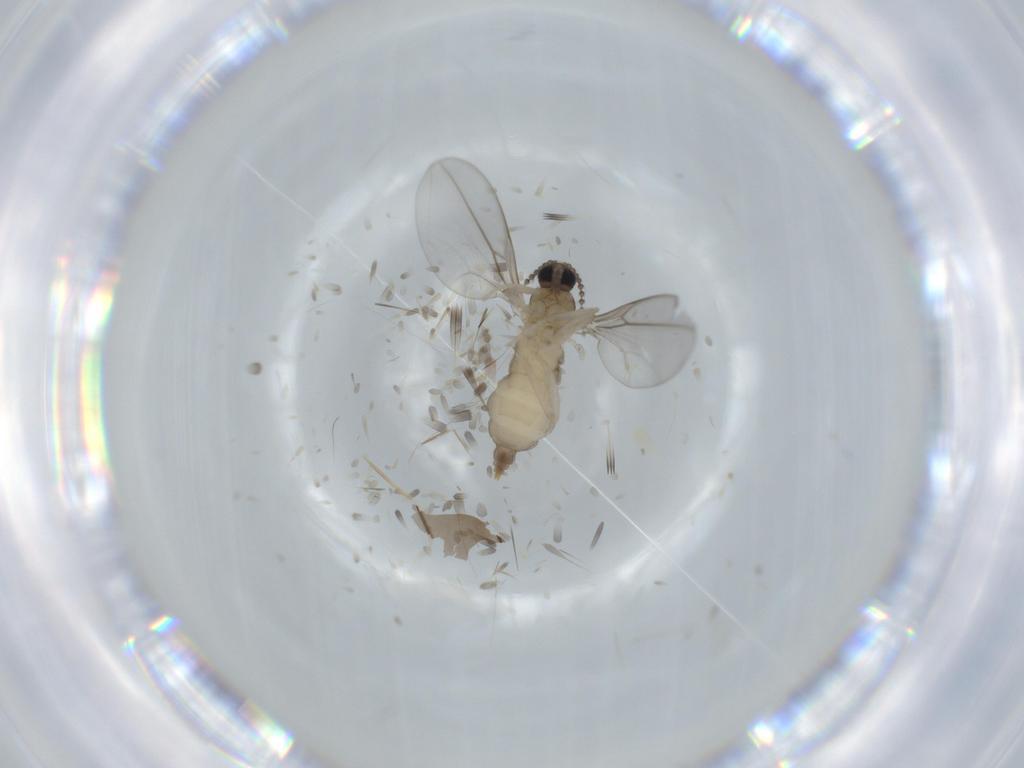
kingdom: Animalia
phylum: Arthropoda
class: Insecta
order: Diptera
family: Cecidomyiidae
